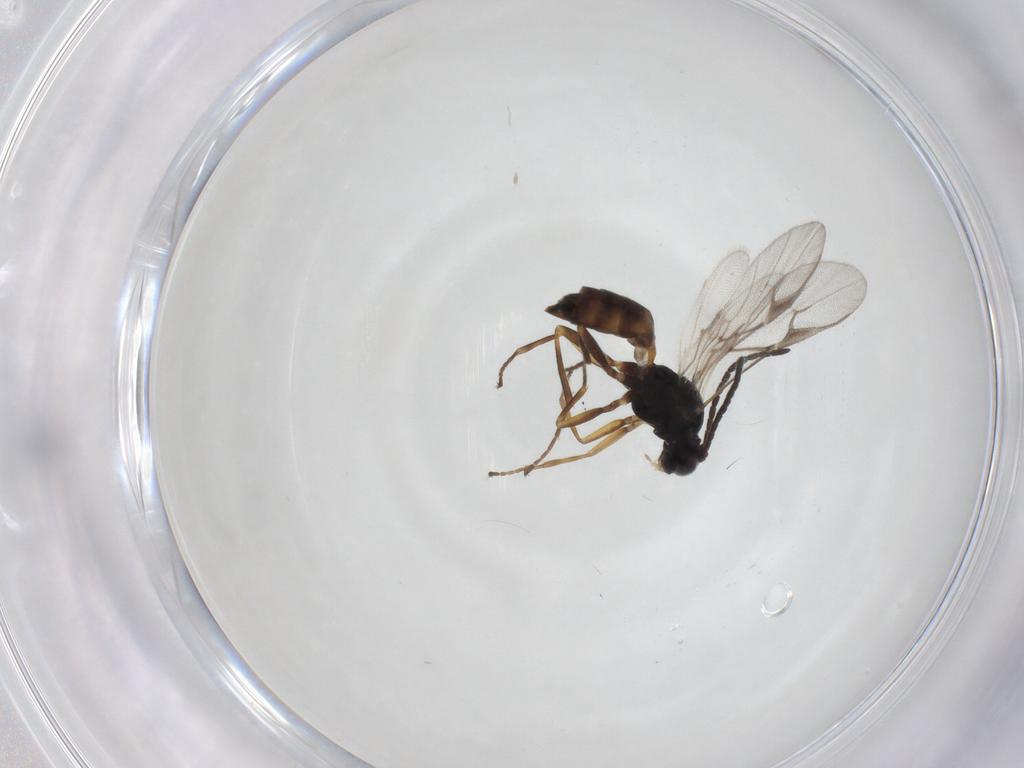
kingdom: Animalia
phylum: Arthropoda
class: Insecta
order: Hymenoptera
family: Braconidae
